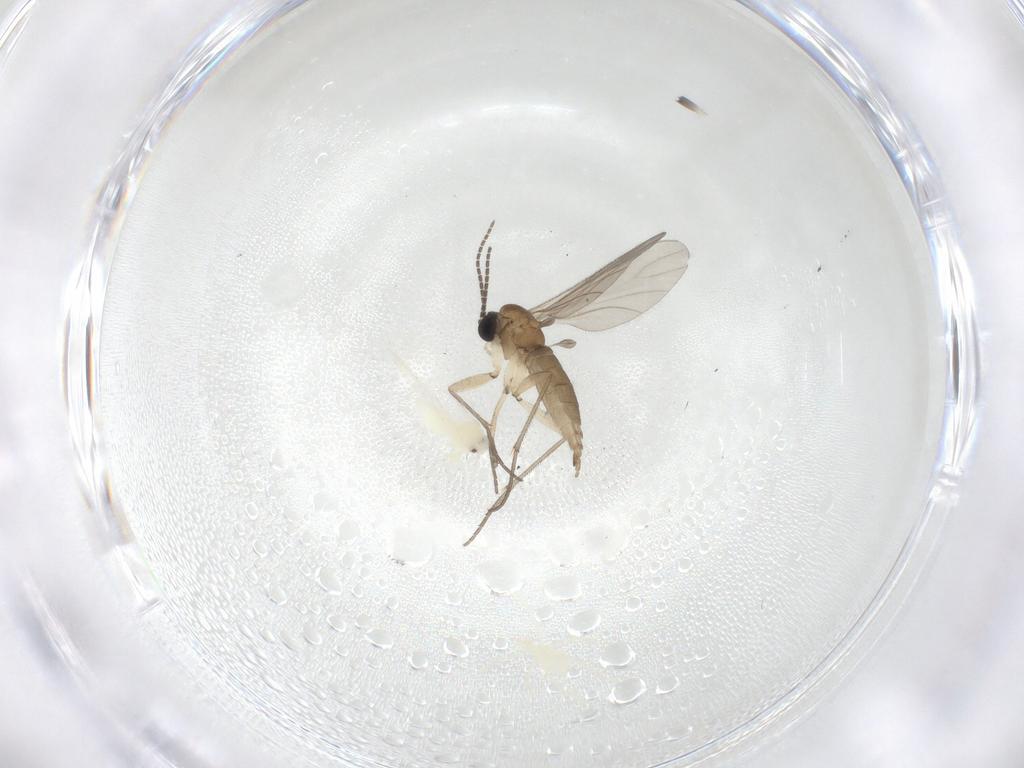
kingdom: Animalia
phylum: Arthropoda
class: Insecta
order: Diptera
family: Sciaridae
